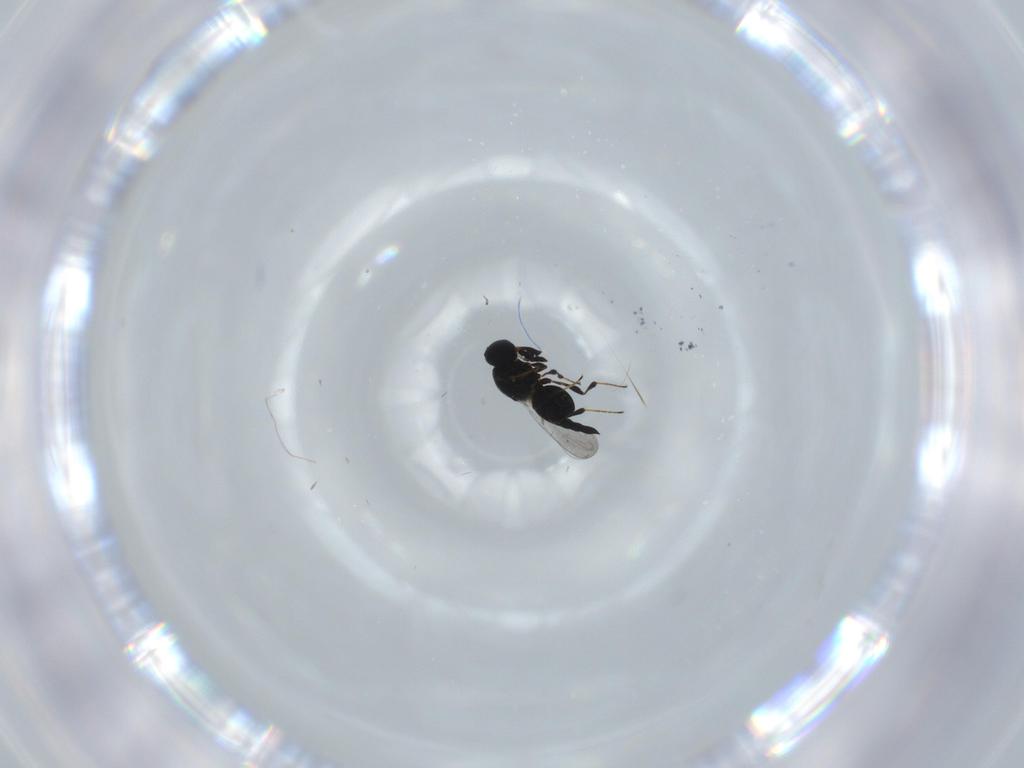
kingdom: Animalia
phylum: Arthropoda
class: Insecta
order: Hymenoptera
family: Platygastridae
